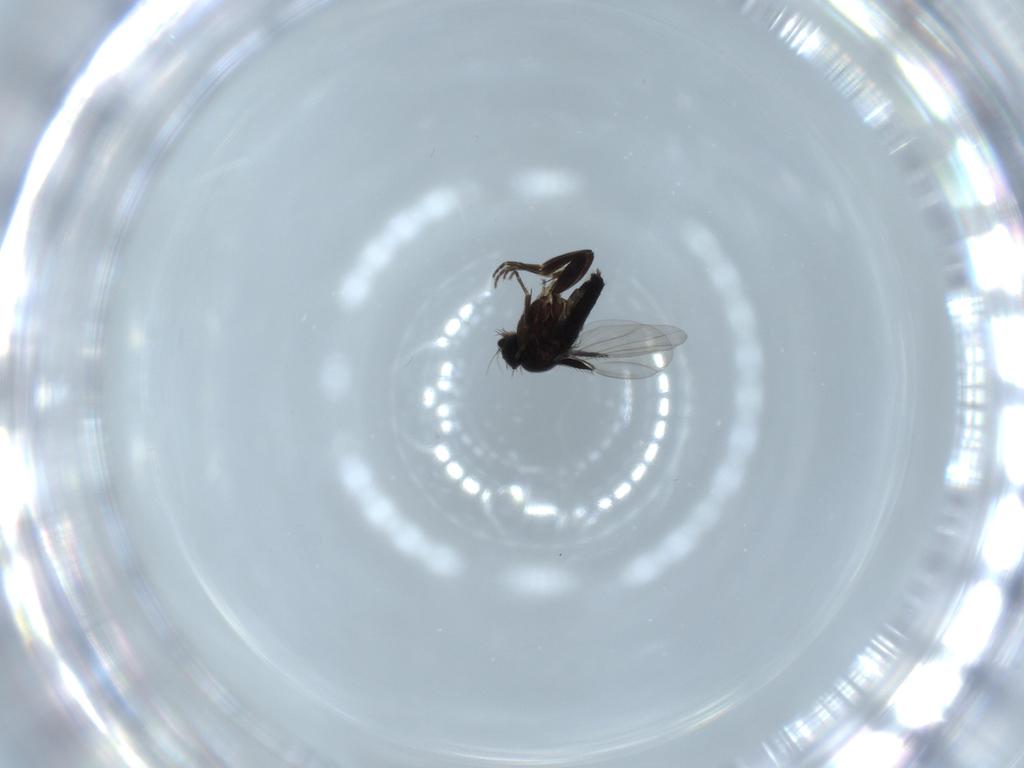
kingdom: Animalia
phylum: Arthropoda
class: Insecta
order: Diptera
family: Phoridae
